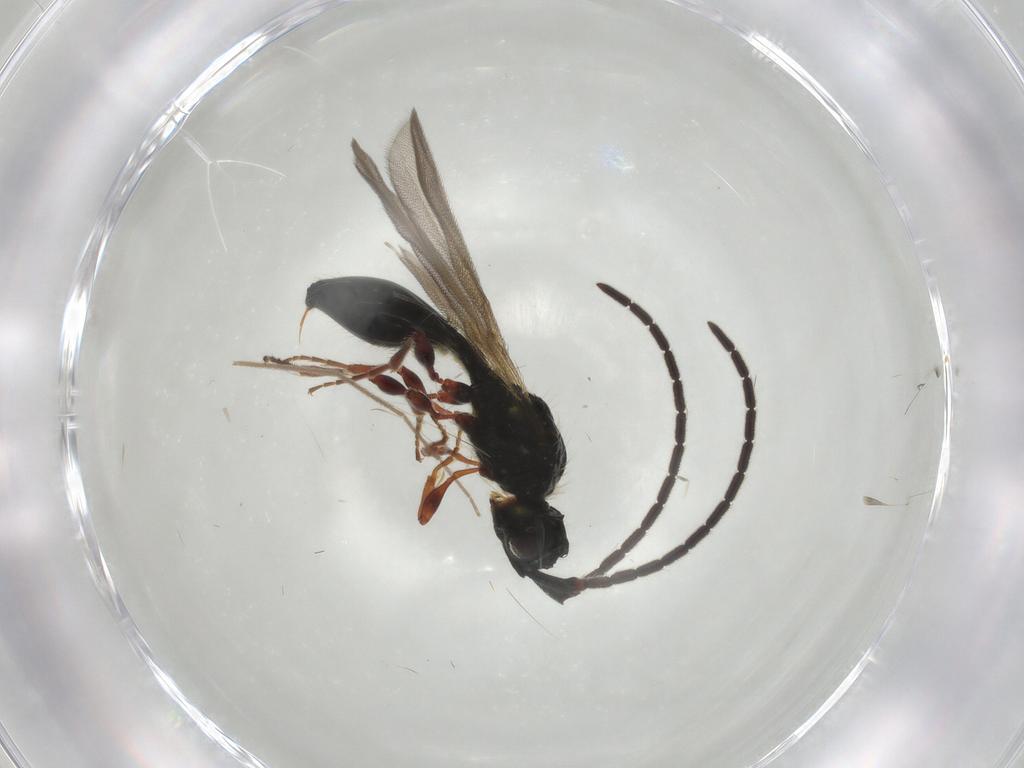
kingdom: Animalia
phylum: Arthropoda
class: Insecta
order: Hymenoptera
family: Diapriidae
